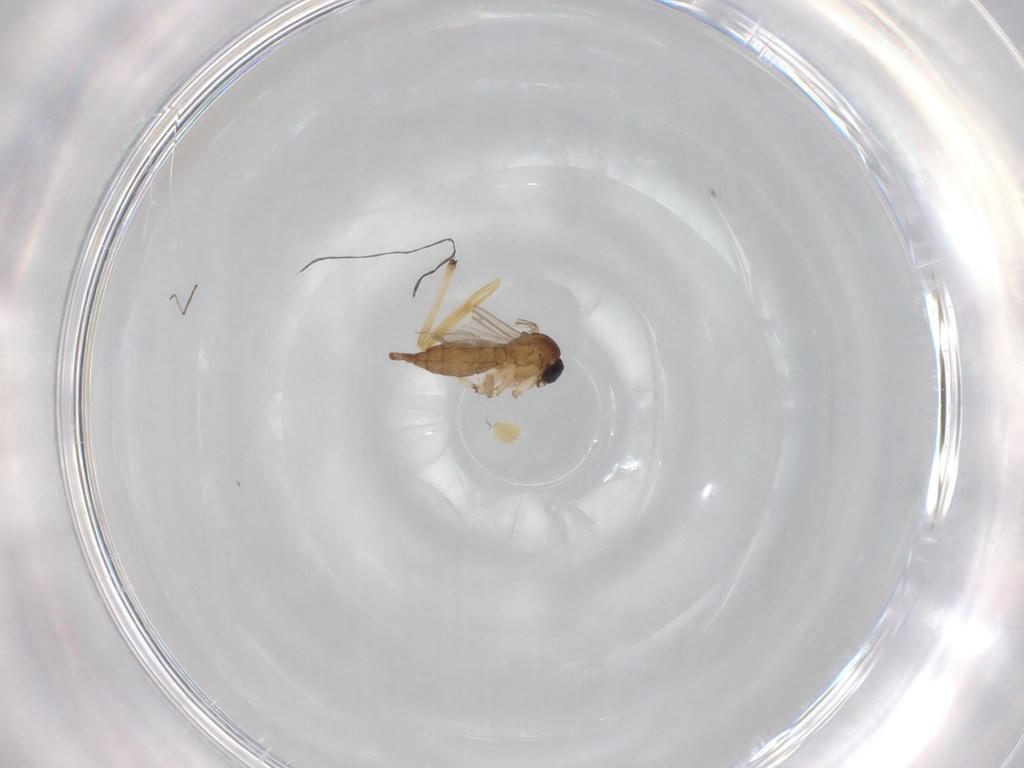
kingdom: Animalia
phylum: Arthropoda
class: Insecta
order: Diptera
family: Glossinidae
